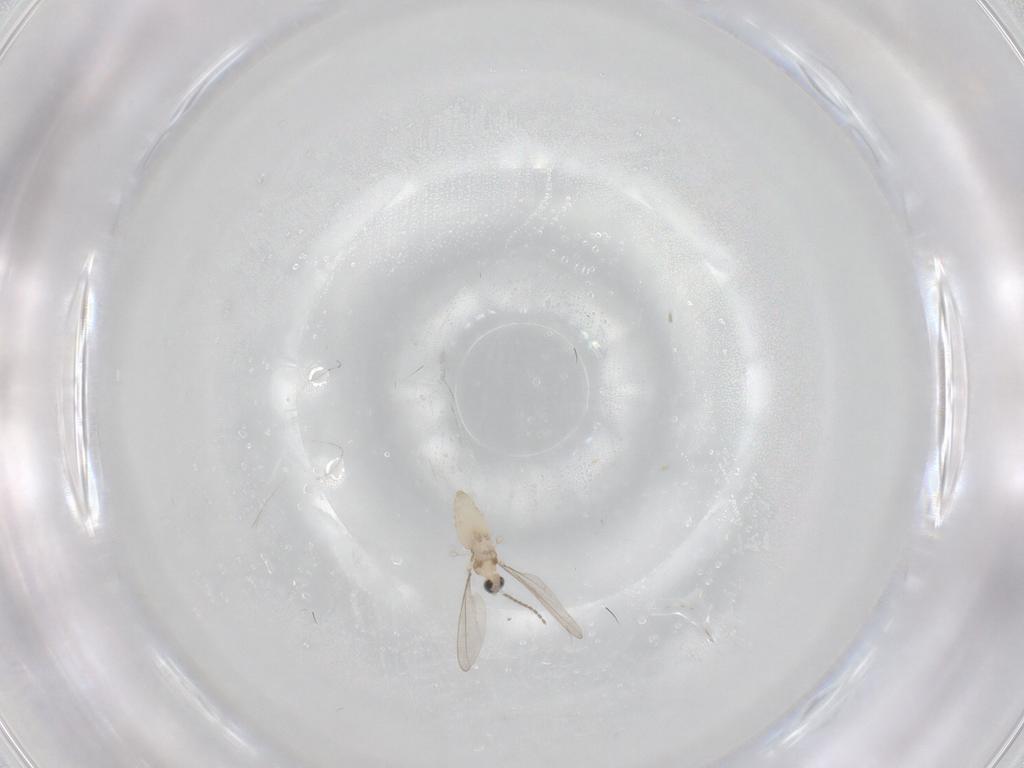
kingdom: Animalia
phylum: Arthropoda
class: Insecta
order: Diptera
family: Cecidomyiidae
